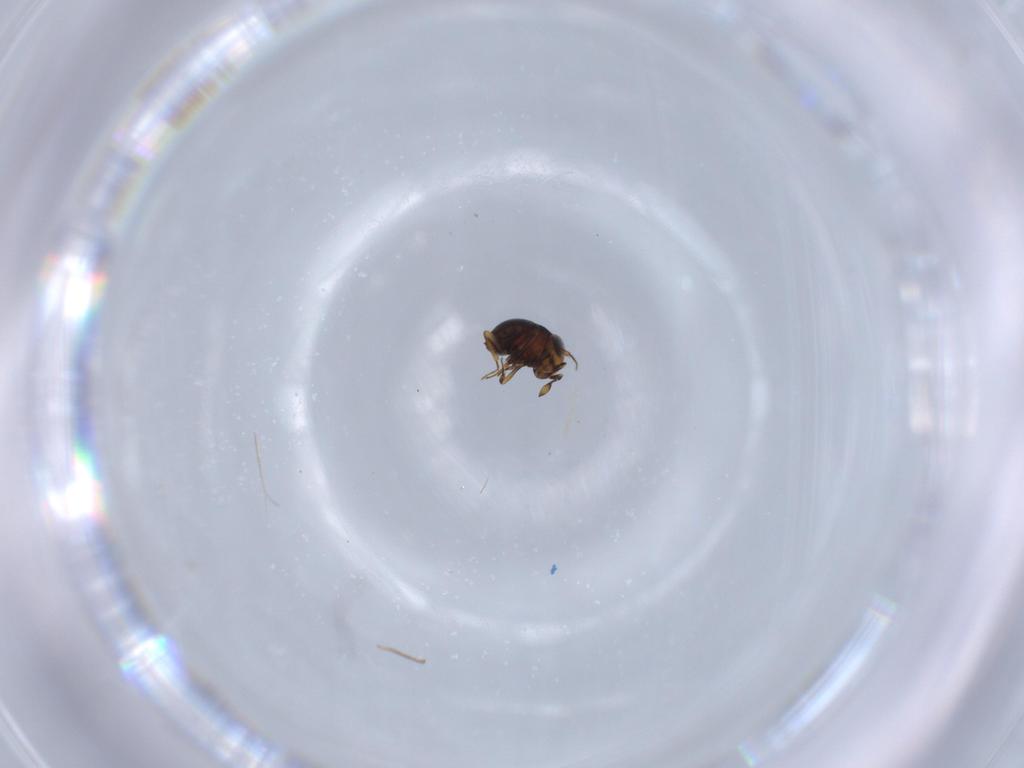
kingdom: Animalia
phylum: Arthropoda
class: Insecta
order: Hymenoptera
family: Scelionidae
